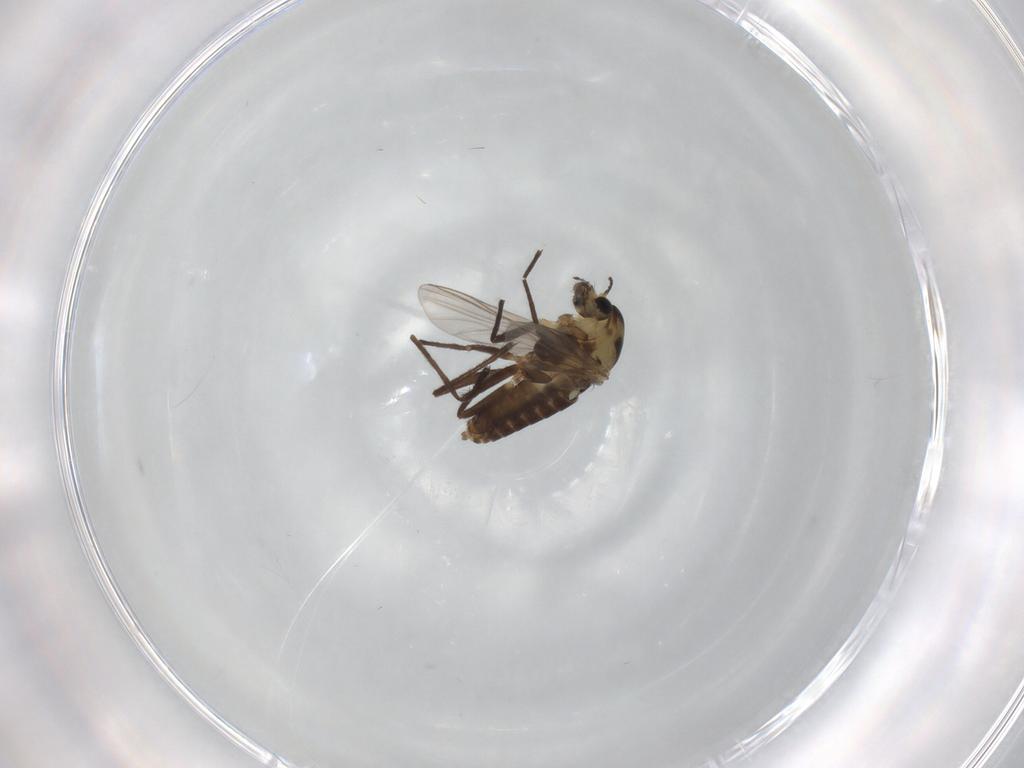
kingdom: Animalia
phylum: Arthropoda
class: Insecta
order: Diptera
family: Chironomidae
